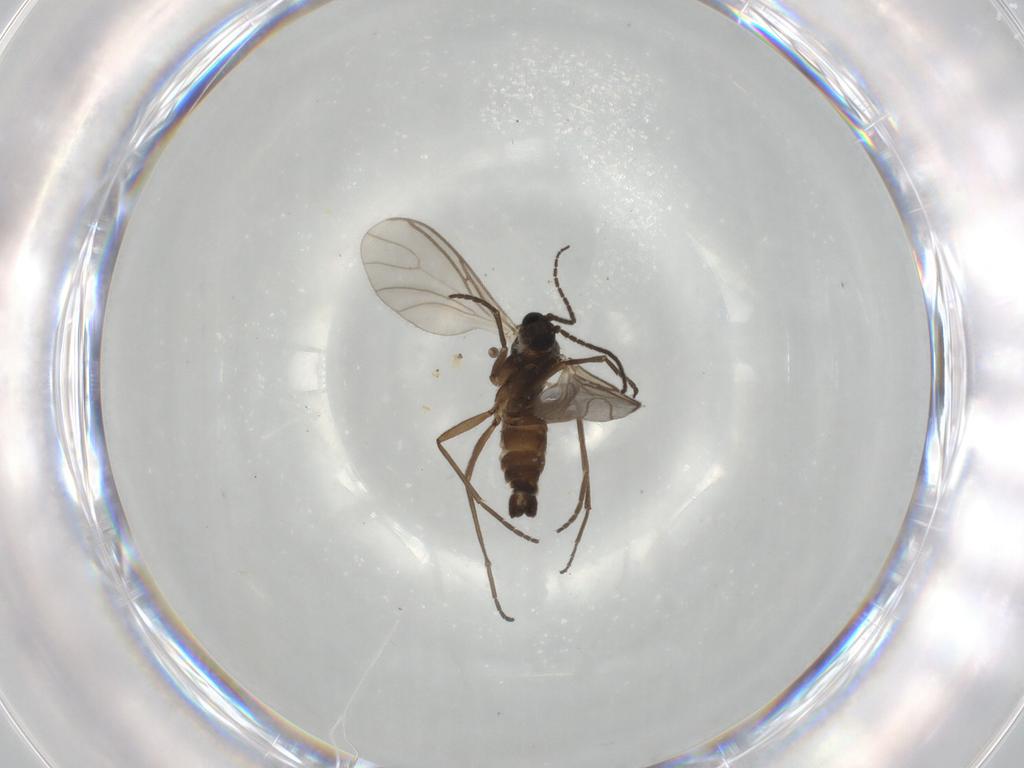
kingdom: Animalia
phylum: Arthropoda
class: Insecta
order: Diptera
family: Sciaridae
